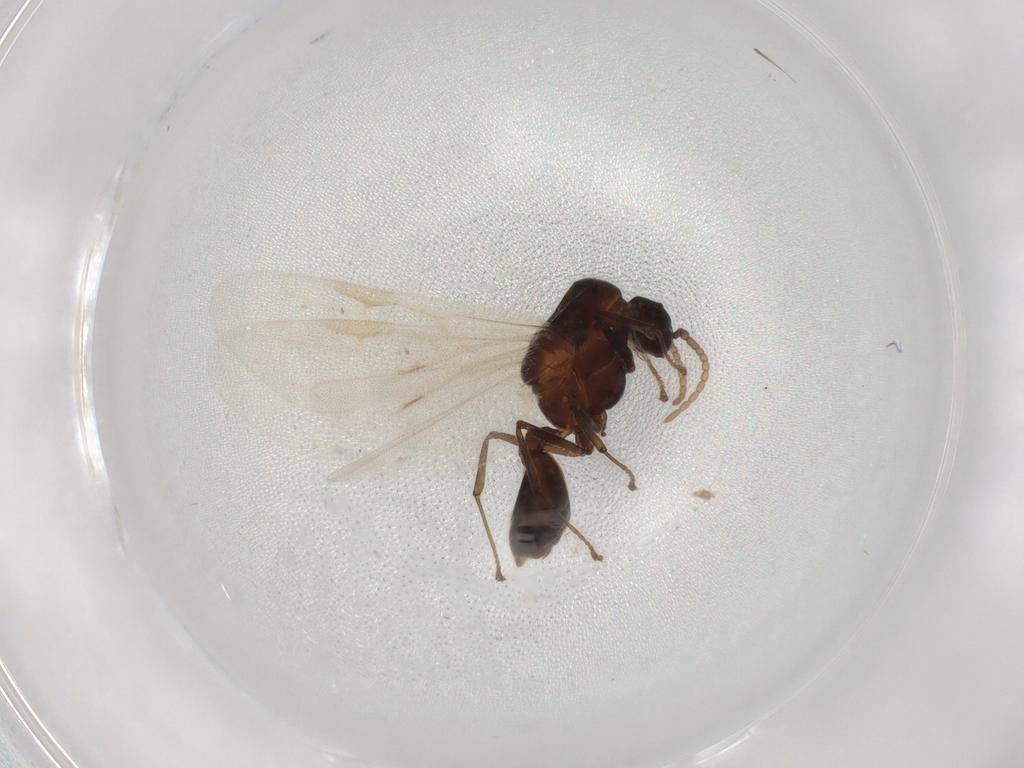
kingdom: Animalia
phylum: Arthropoda
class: Insecta
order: Hymenoptera
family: Formicidae
